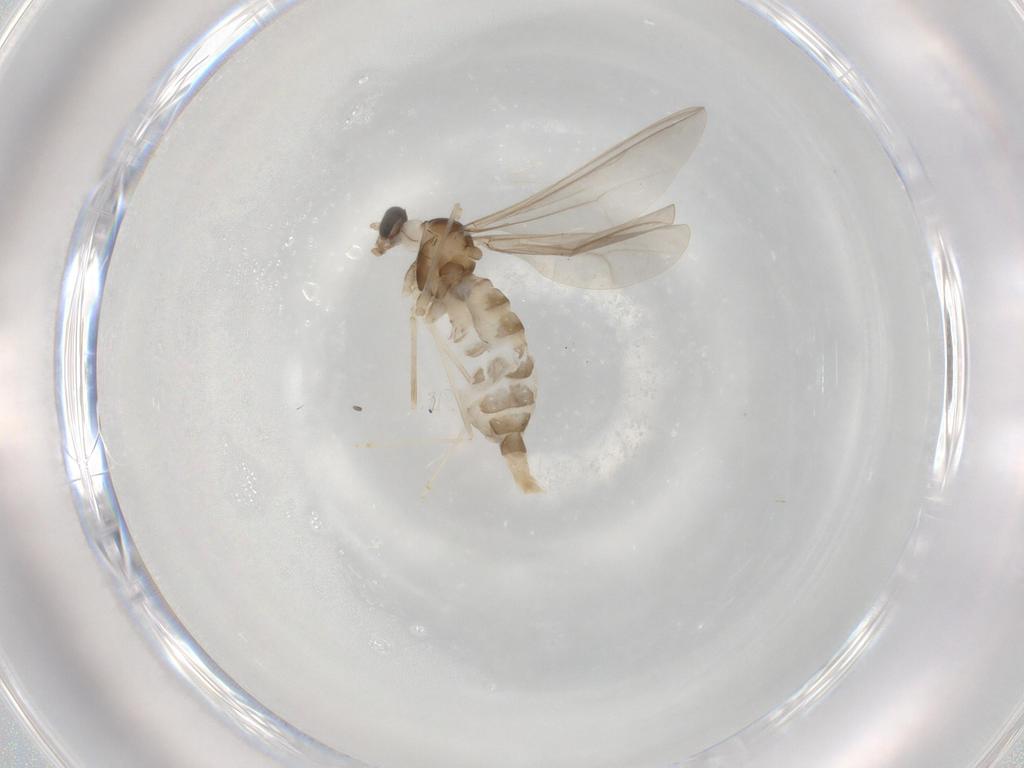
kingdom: Animalia
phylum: Arthropoda
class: Insecta
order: Diptera
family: Cecidomyiidae
